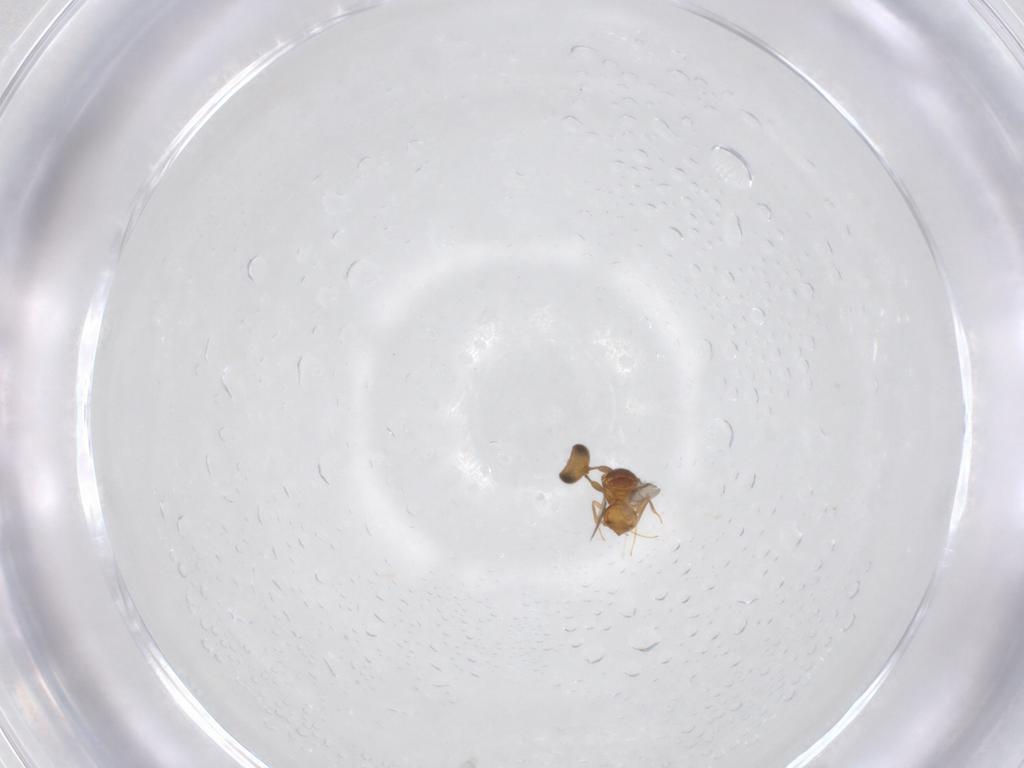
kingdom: Animalia
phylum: Arthropoda
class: Insecta
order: Hymenoptera
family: Scelionidae
